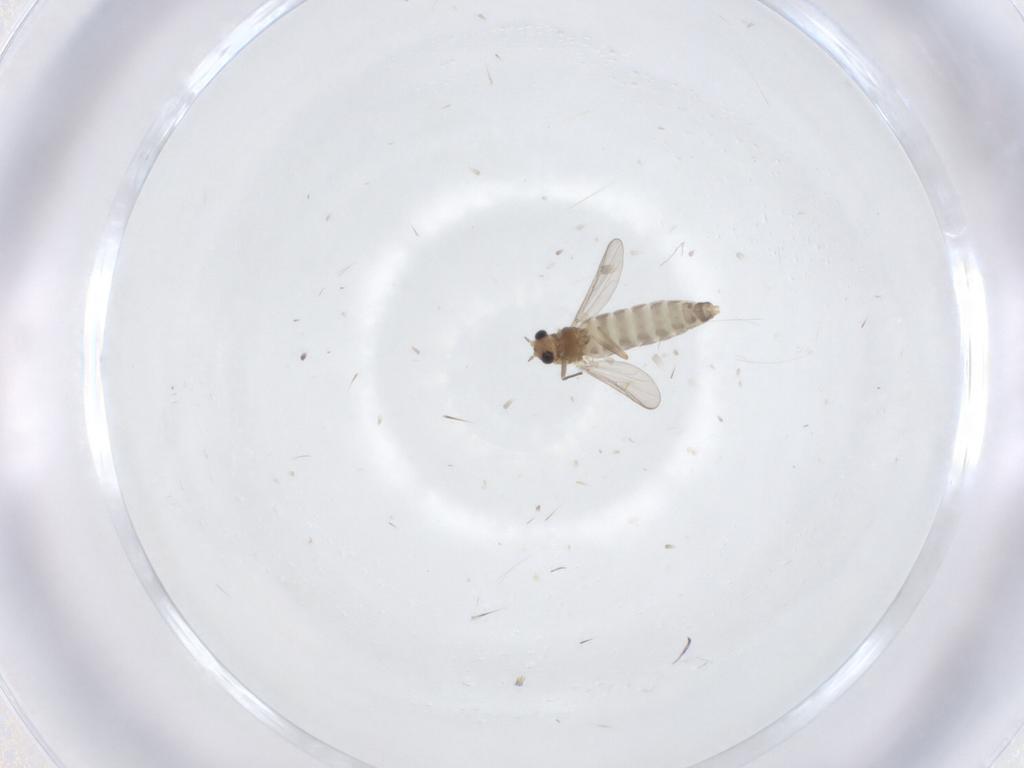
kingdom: Animalia
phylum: Arthropoda
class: Insecta
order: Diptera
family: Chironomidae
